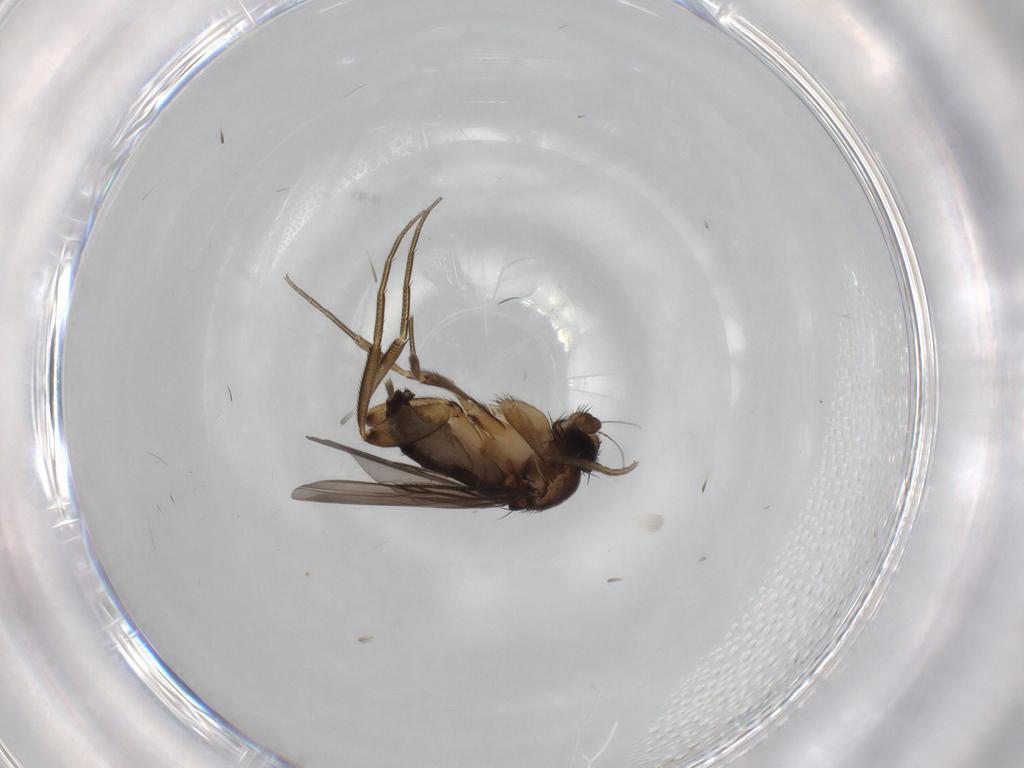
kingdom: Animalia
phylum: Arthropoda
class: Insecta
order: Diptera
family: Phoridae
